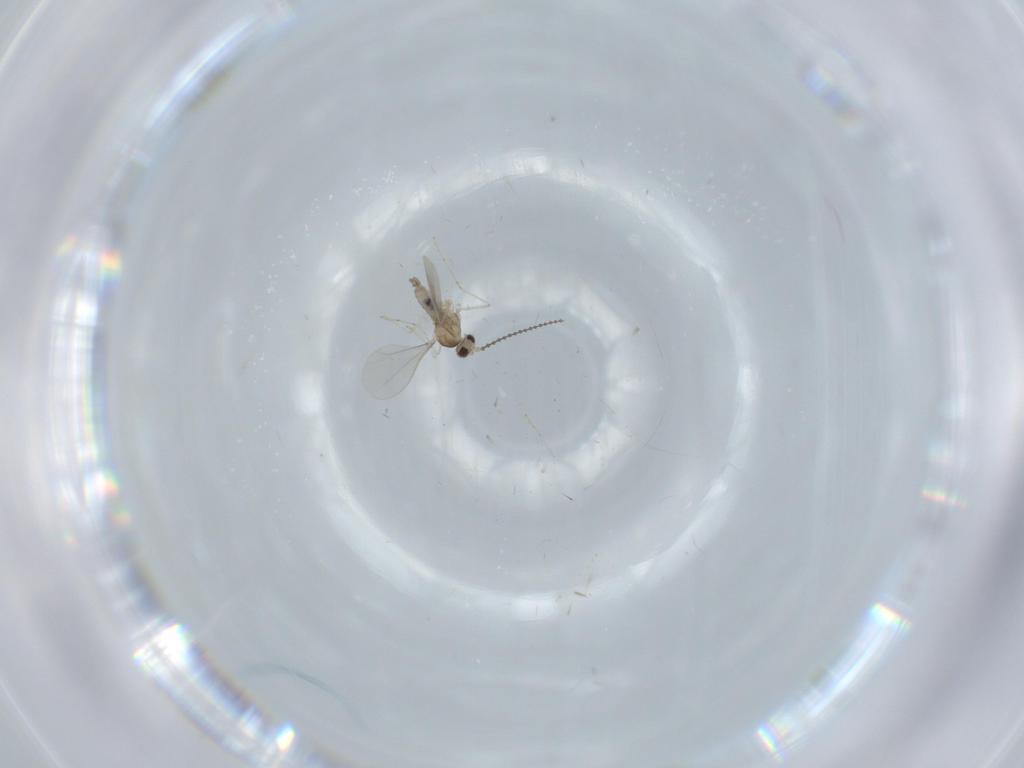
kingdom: Animalia
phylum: Arthropoda
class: Insecta
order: Diptera
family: Cecidomyiidae
